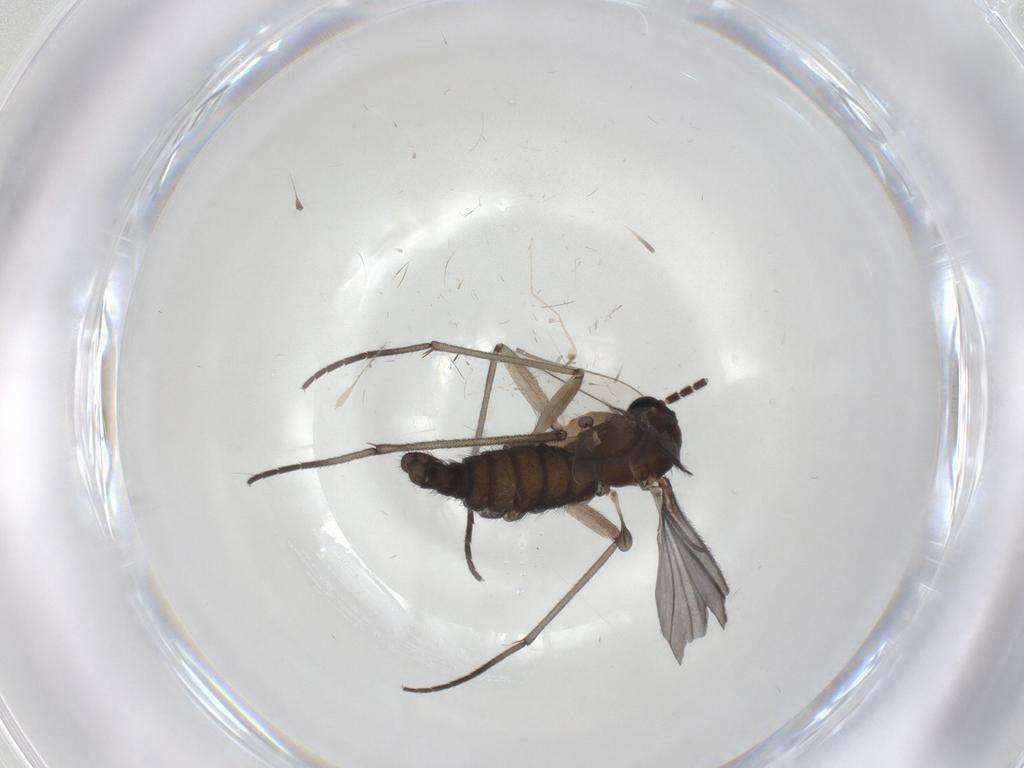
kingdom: Animalia
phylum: Arthropoda
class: Insecta
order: Diptera
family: Sciaridae
